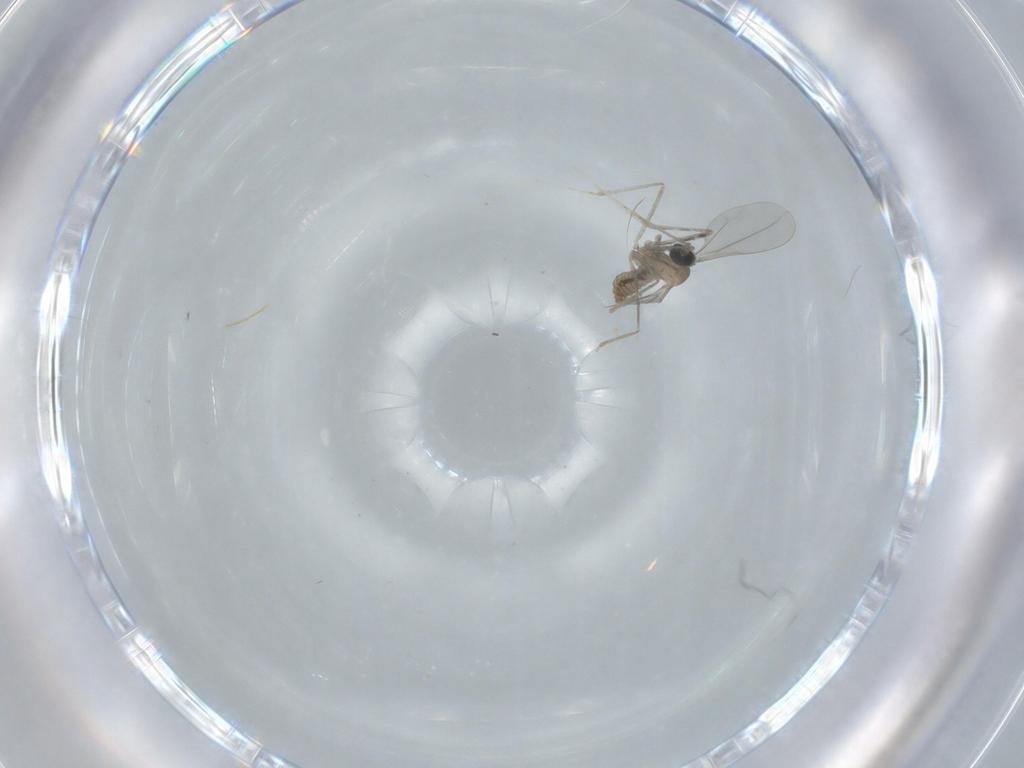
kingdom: Animalia
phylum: Arthropoda
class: Insecta
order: Diptera
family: Cecidomyiidae
